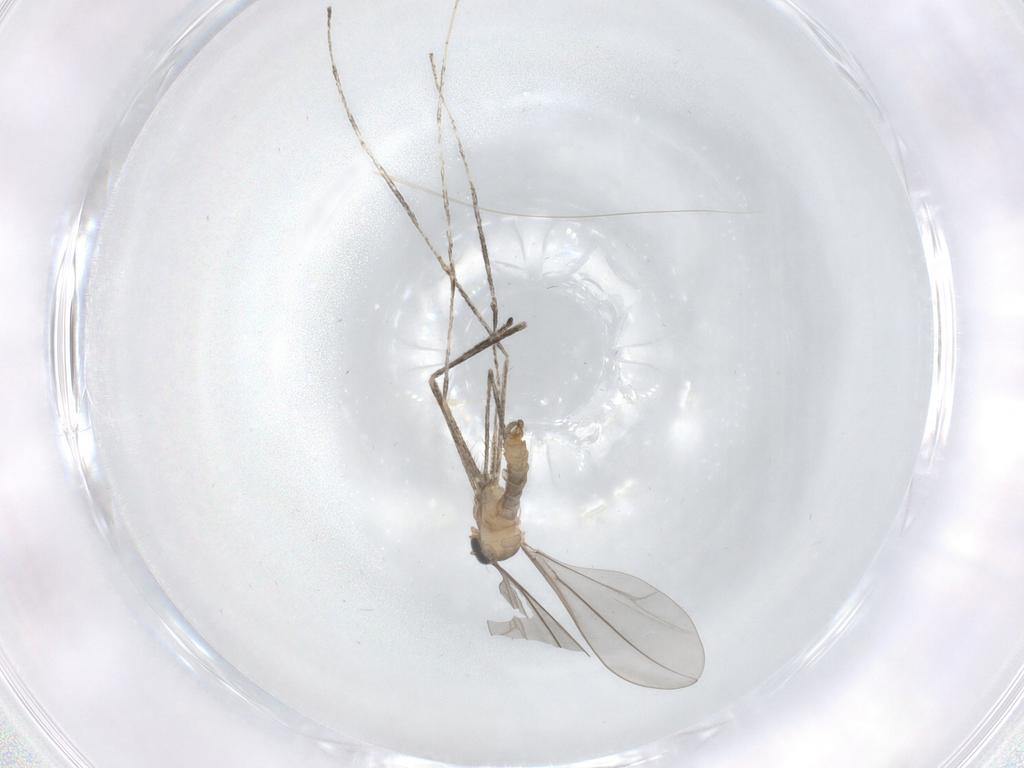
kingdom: Animalia
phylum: Arthropoda
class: Insecta
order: Diptera
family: Cecidomyiidae
